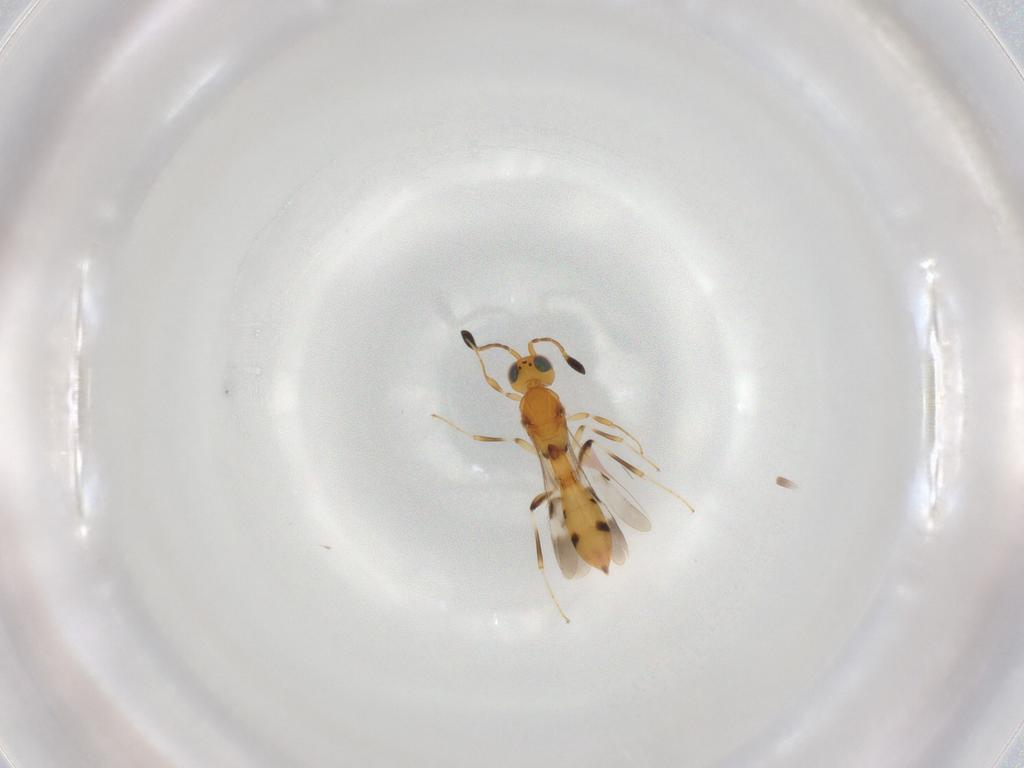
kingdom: Animalia
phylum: Arthropoda
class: Insecta
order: Hymenoptera
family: Scelionidae
